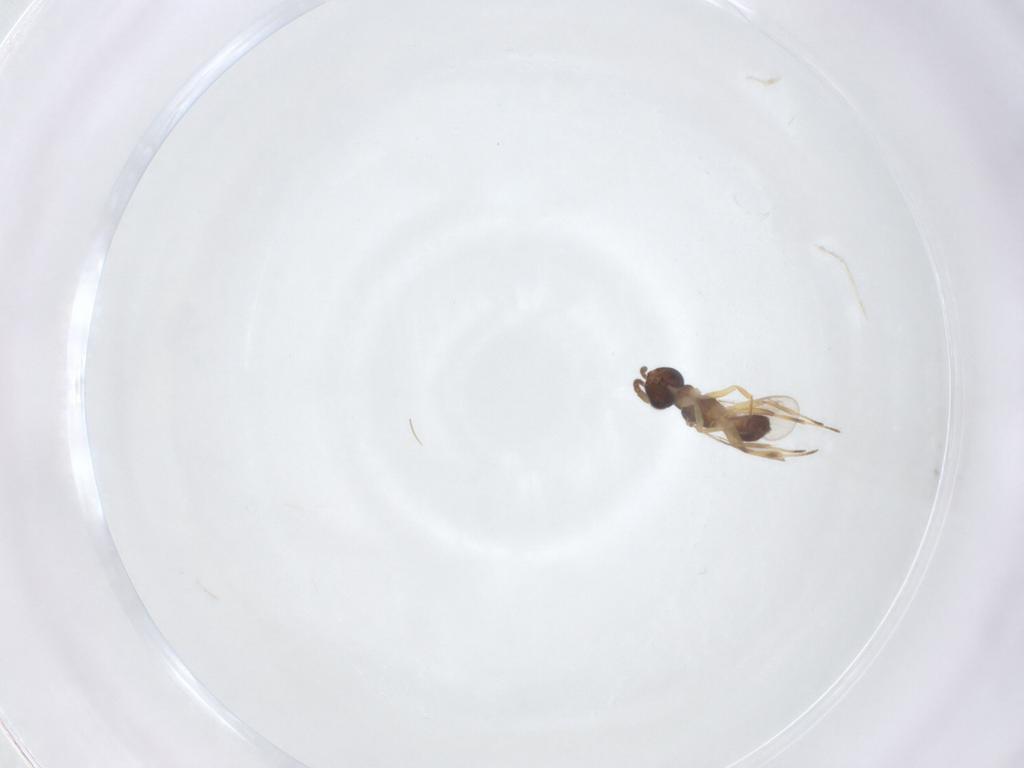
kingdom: Animalia
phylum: Arthropoda
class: Insecta
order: Hymenoptera
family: Eupelmidae
